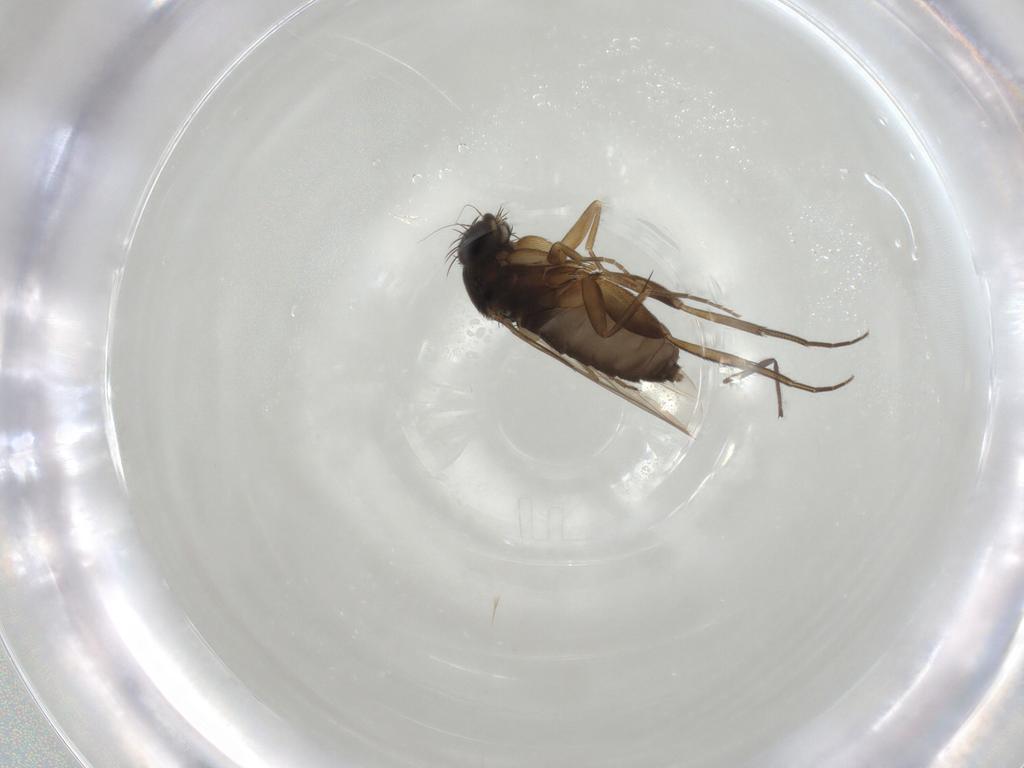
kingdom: Animalia
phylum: Arthropoda
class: Insecta
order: Diptera
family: Phoridae
